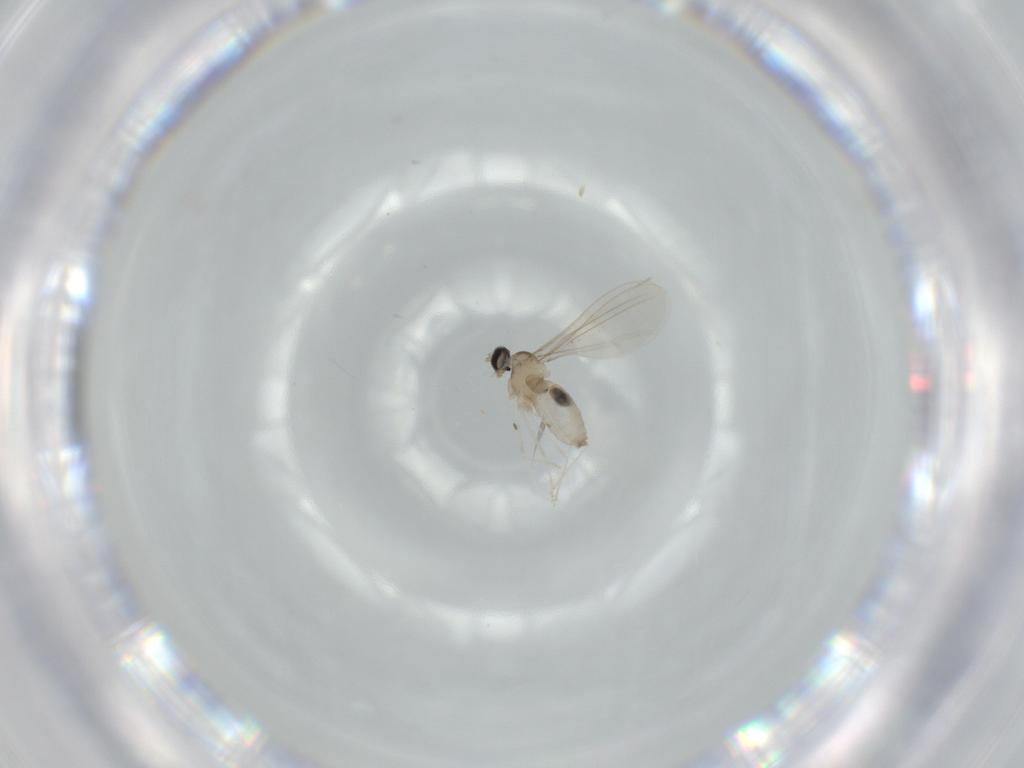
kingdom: Animalia
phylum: Arthropoda
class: Insecta
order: Diptera
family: Cecidomyiidae
